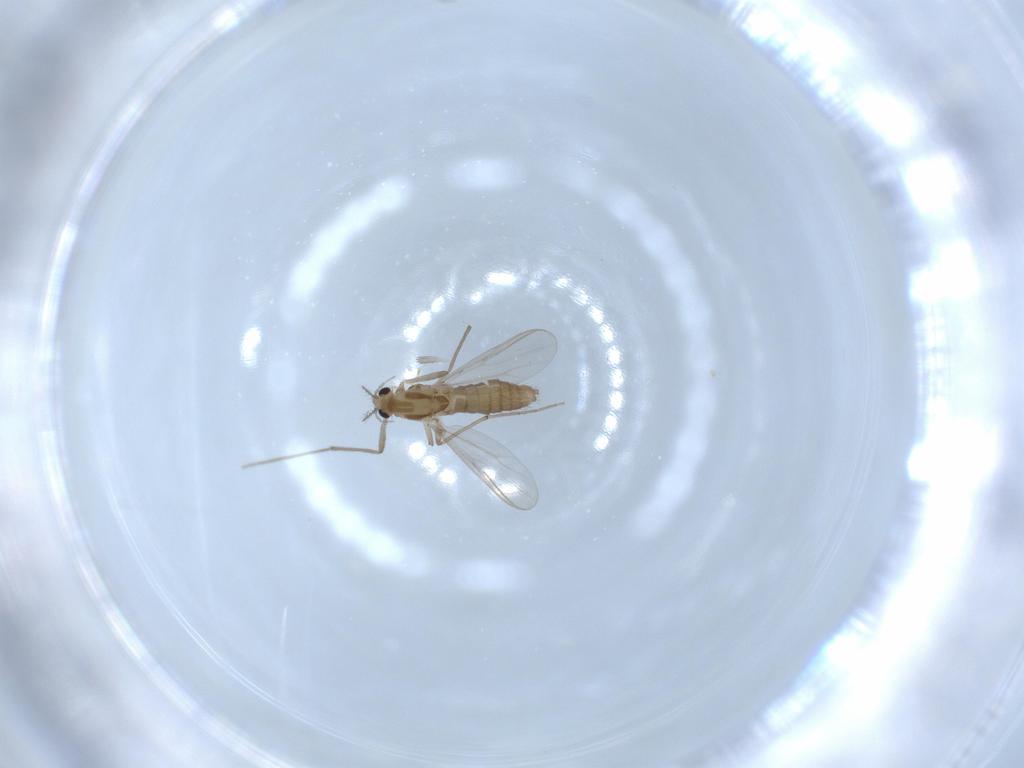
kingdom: Animalia
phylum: Arthropoda
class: Insecta
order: Diptera
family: Chironomidae
